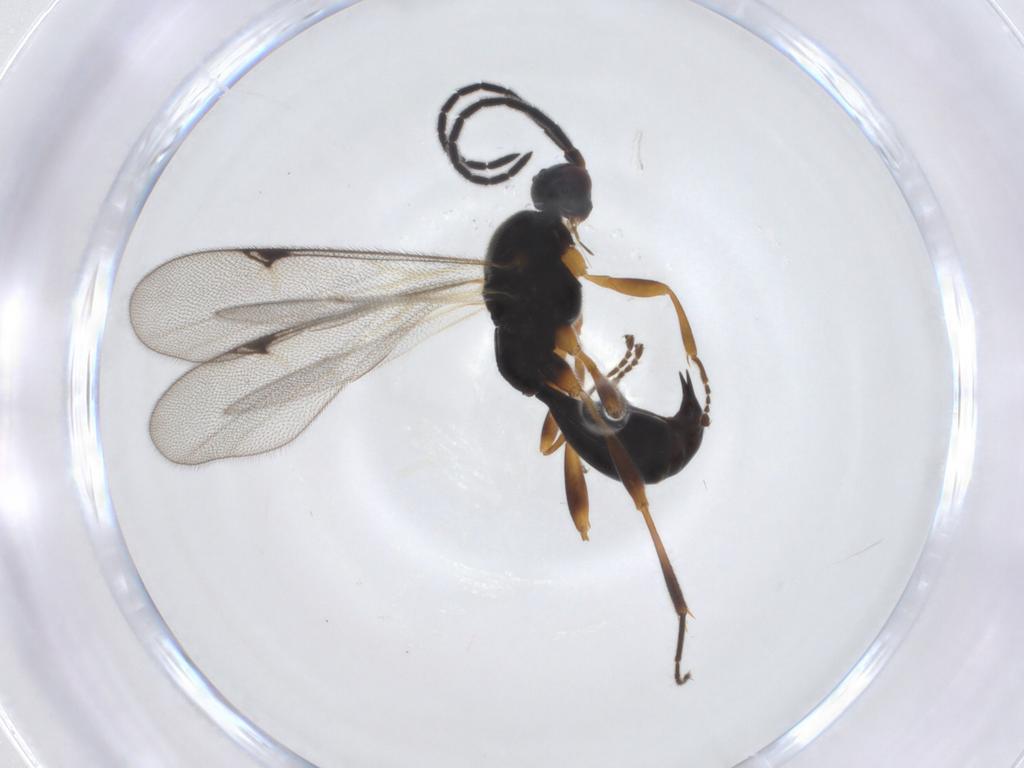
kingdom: Animalia
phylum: Arthropoda
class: Insecta
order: Hymenoptera
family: Proctotrupidae
